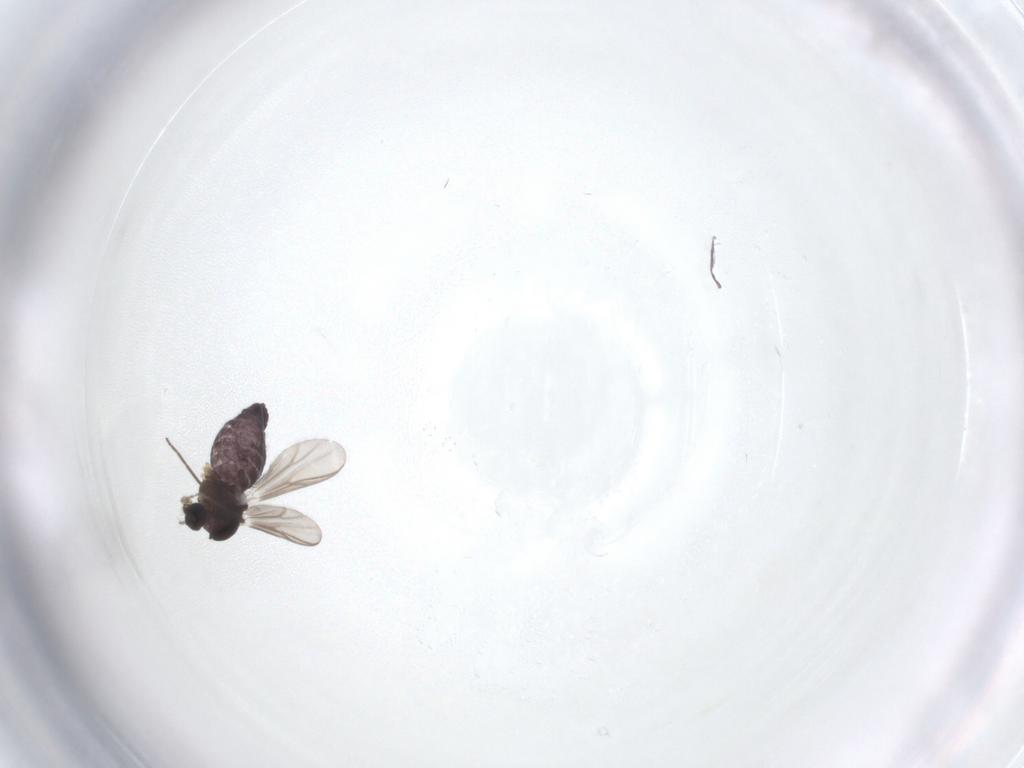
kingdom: Animalia
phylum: Arthropoda
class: Insecta
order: Diptera
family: Chironomidae
